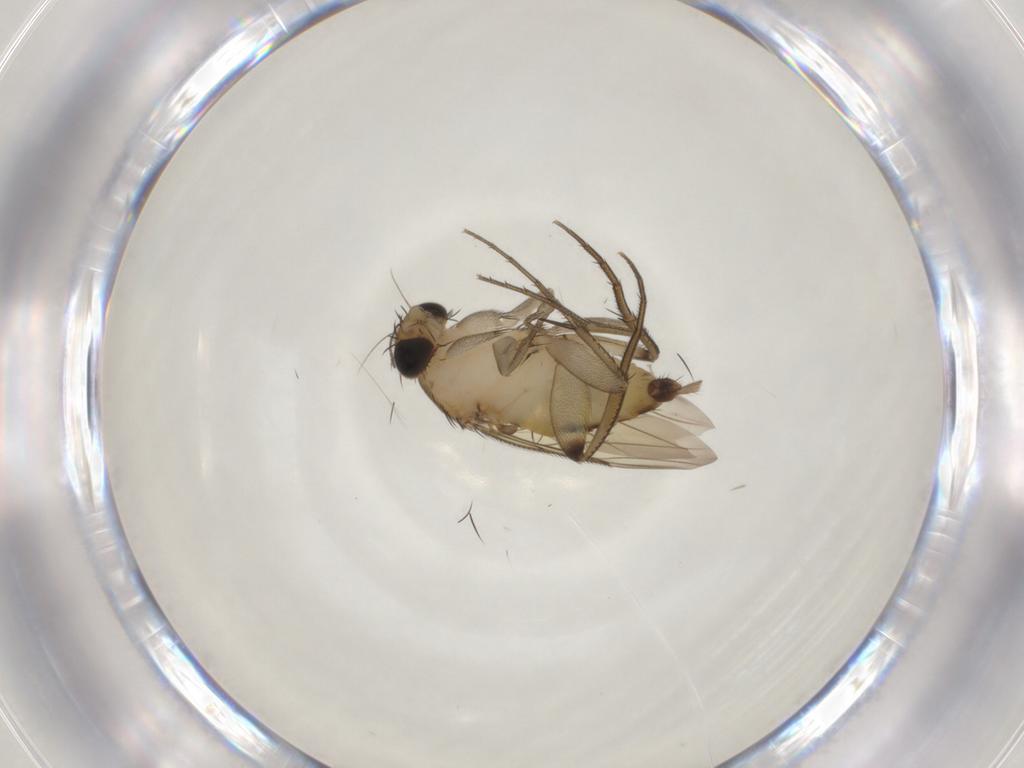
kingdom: Animalia
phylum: Arthropoda
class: Insecta
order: Diptera
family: Phoridae
